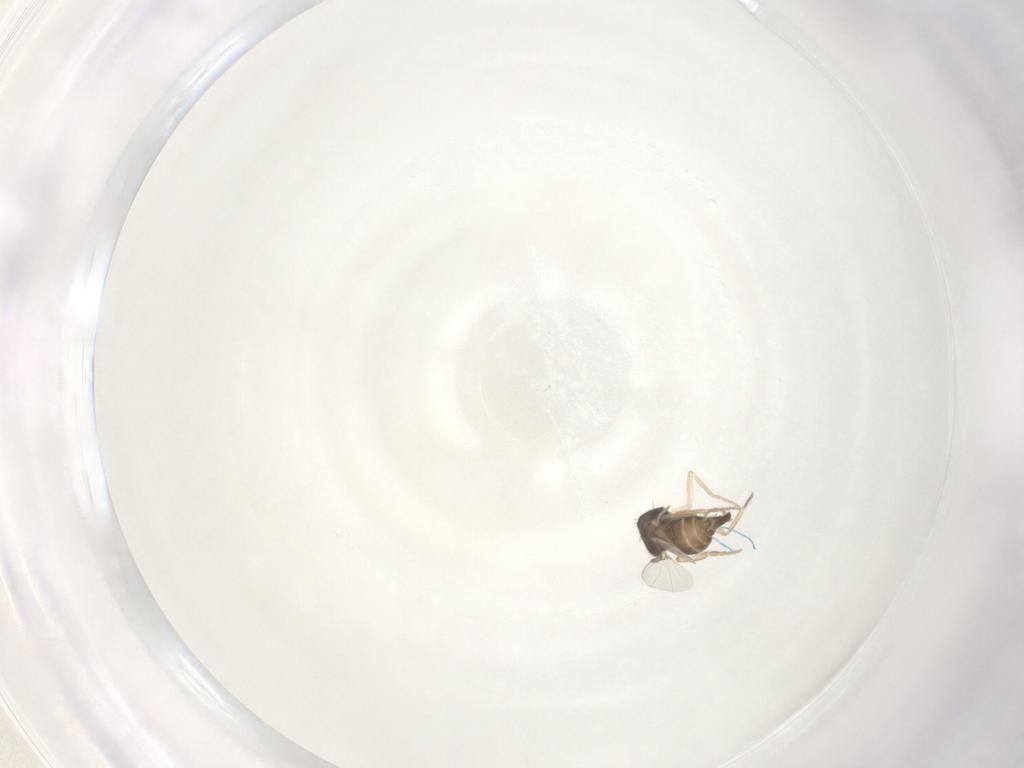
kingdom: Animalia
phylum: Arthropoda
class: Insecta
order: Diptera
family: Phoridae
